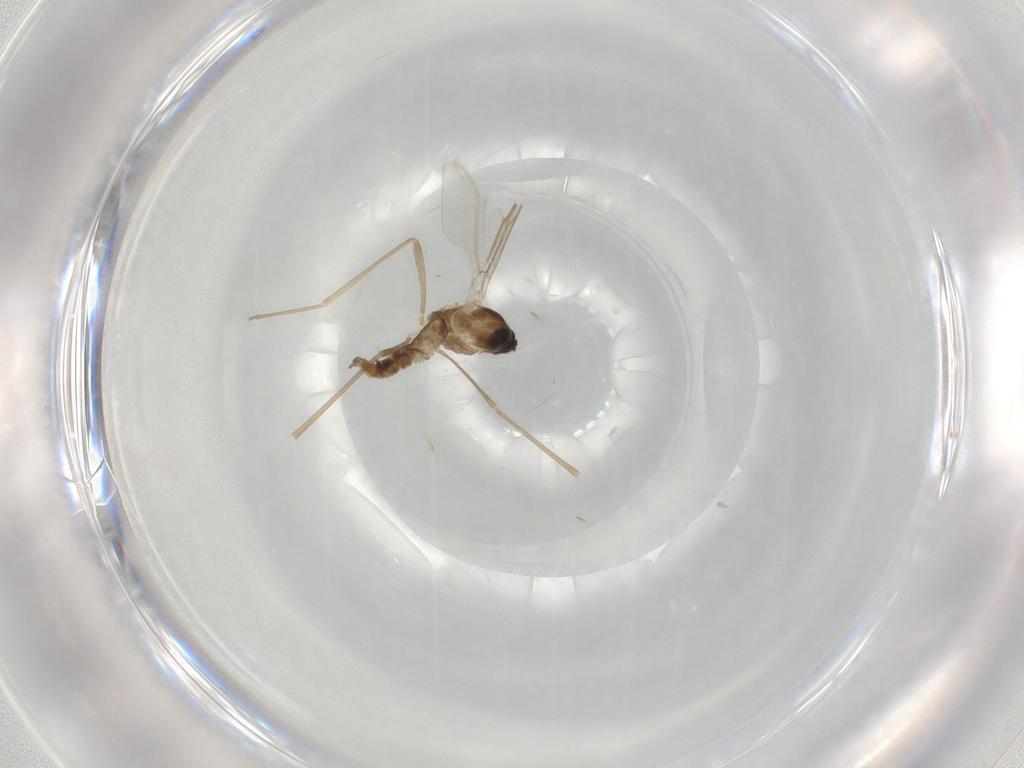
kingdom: Animalia
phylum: Arthropoda
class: Insecta
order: Diptera
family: Cecidomyiidae
